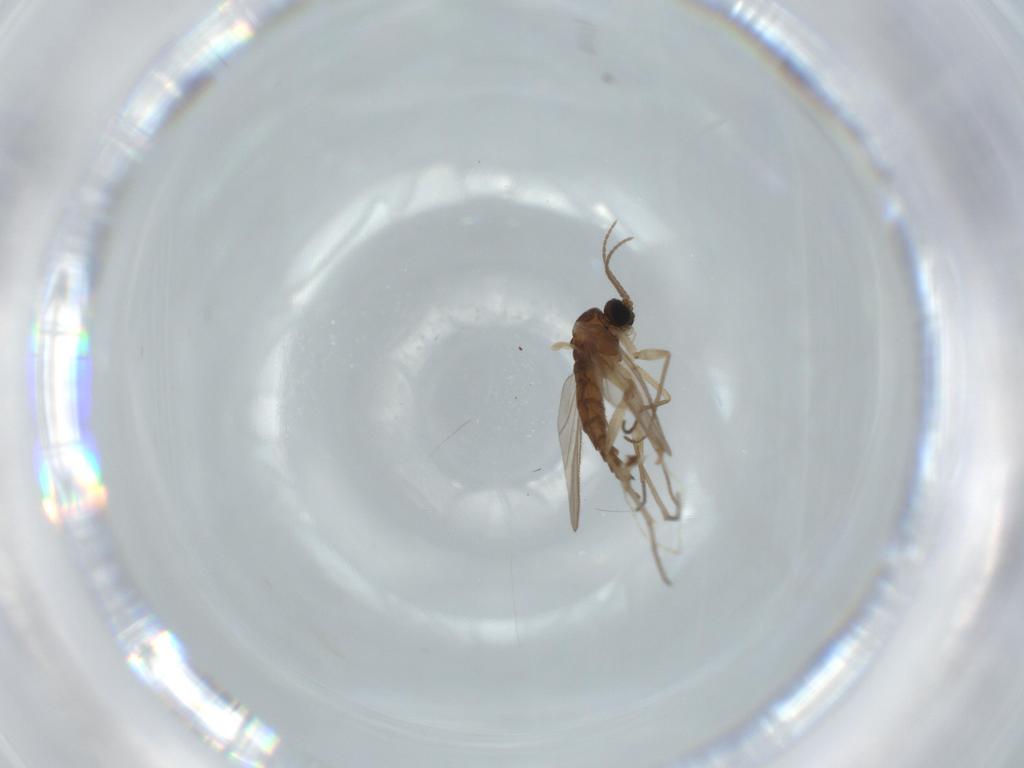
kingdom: Animalia
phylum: Arthropoda
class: Insecta
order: Diptera
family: Sciaridae
